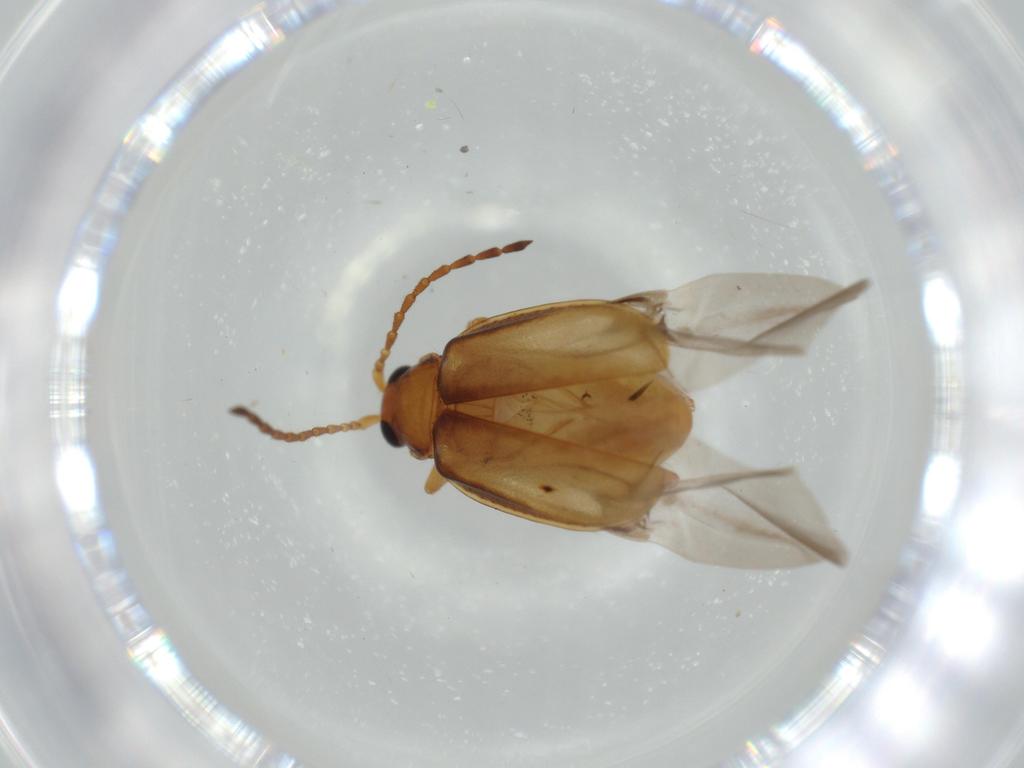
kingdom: Animalia
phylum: Arthropoda
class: Insecta
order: Coleoptera
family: Chrysomelidae
